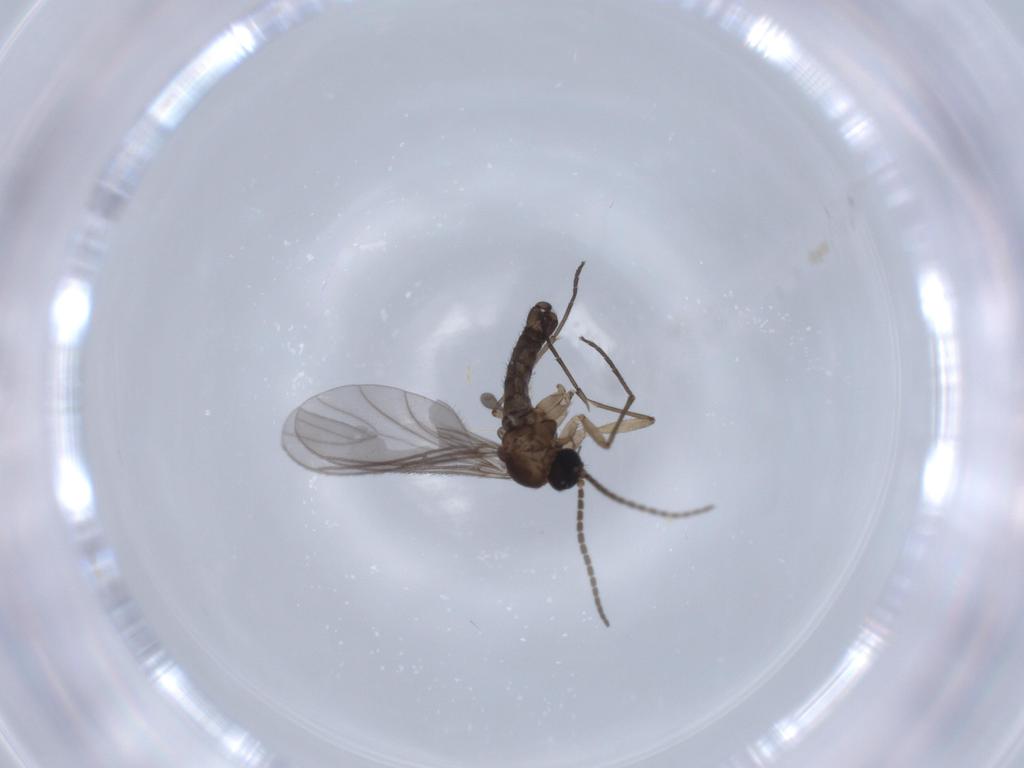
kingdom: Animalia
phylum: Arthropoda
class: Insecta
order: Diptera
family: Sciaridae
